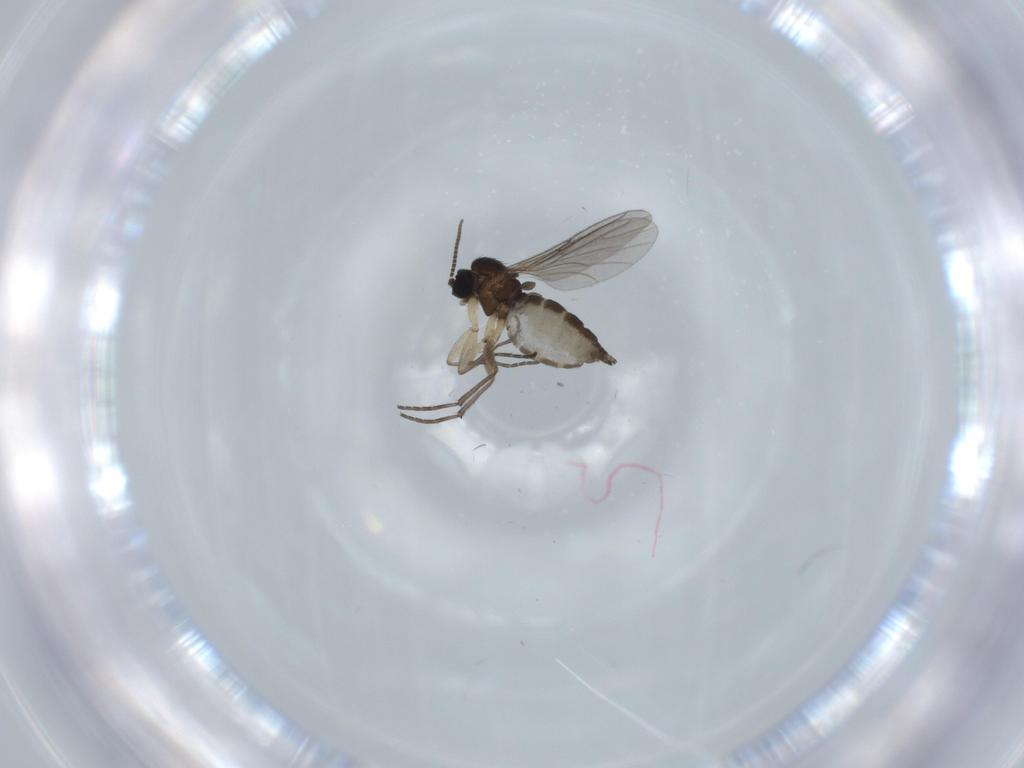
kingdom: Animalia
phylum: Arthropoda
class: Insecta
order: Diptera
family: Sciaridae
